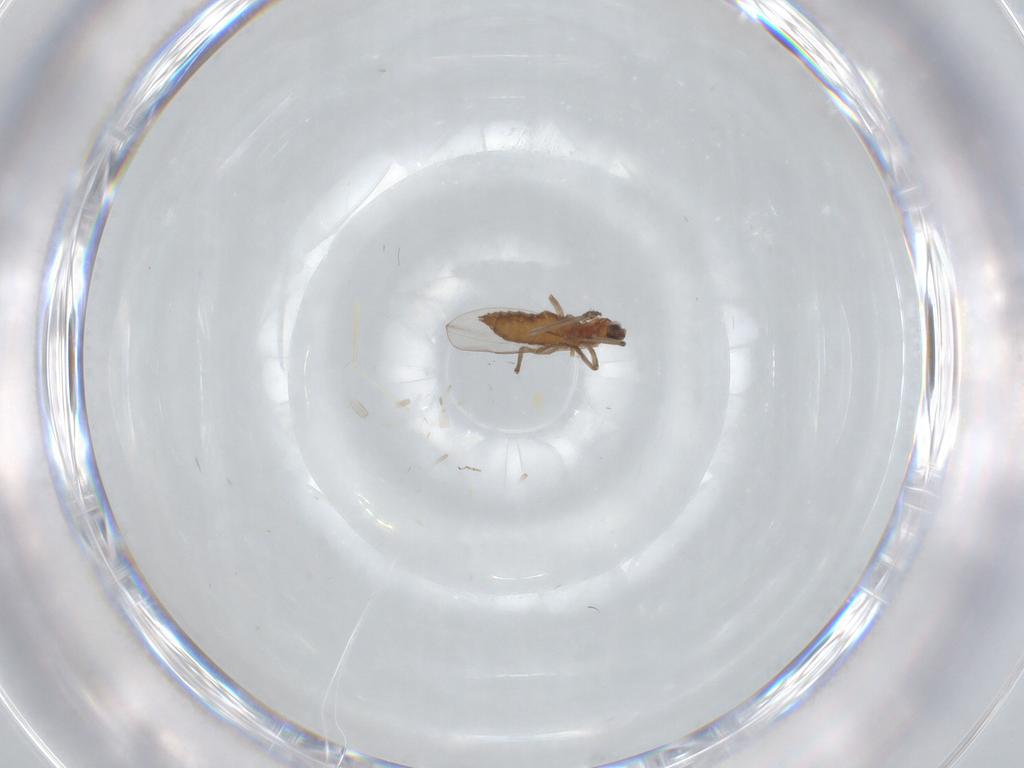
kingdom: Animalia
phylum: Arthropoda
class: Insecta
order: Diptera
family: Cecidomyiidae
